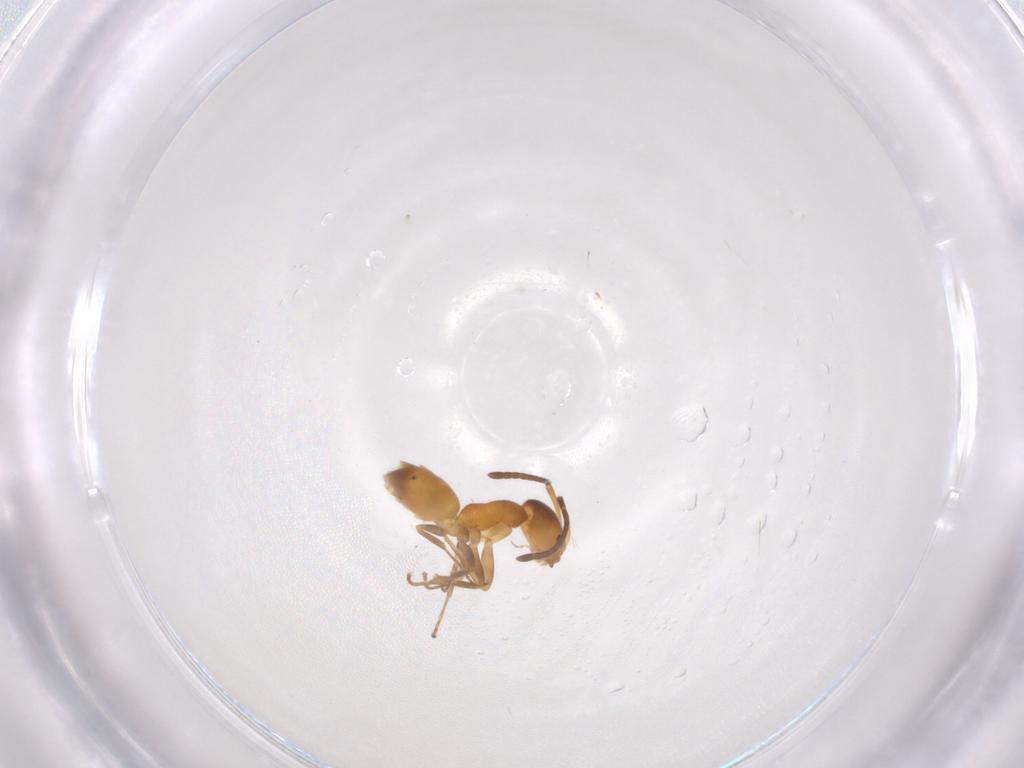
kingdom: Animalia
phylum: Arthropoda
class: Insecta
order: Hymenoptera
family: Formicidae
